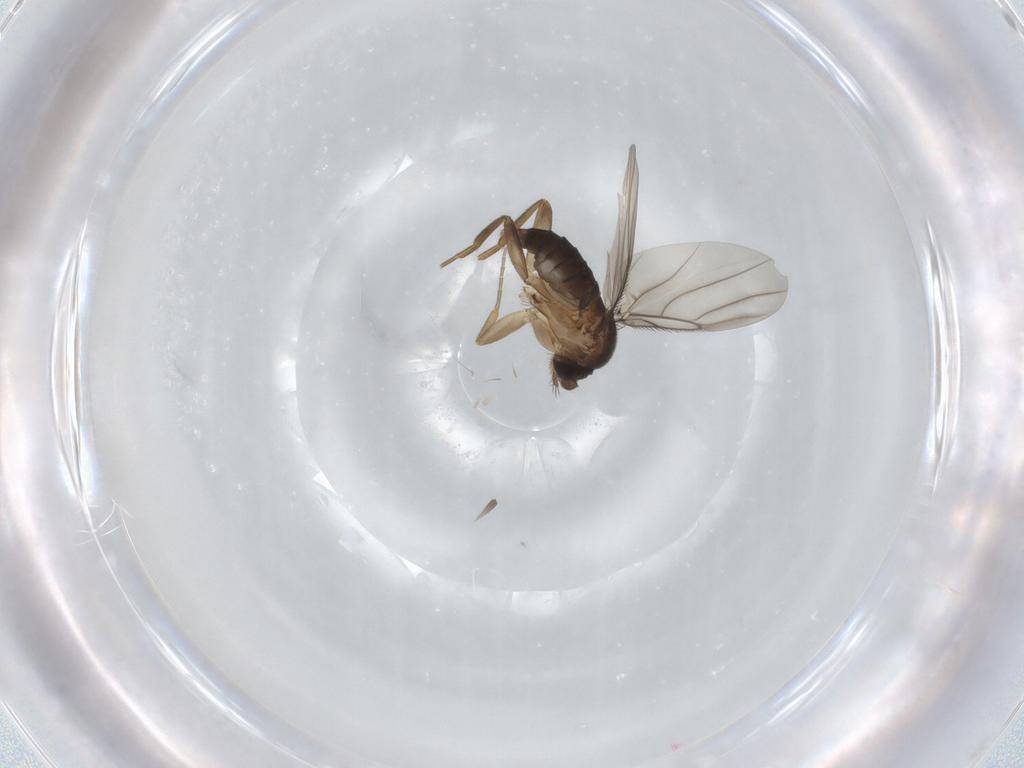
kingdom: Animalia
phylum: Arthropoda
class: Insecta
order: Diptera
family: Phoridae
